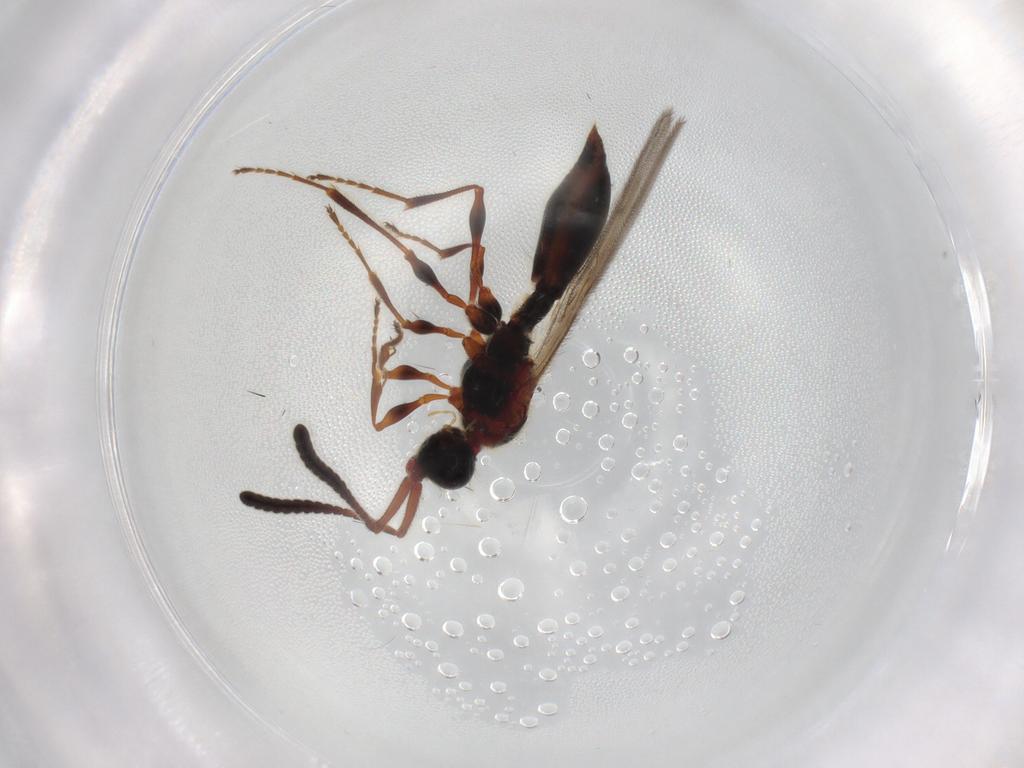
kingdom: Animalia
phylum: Arthropoda
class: Insecta
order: Hymenoptera
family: Diapriidae
